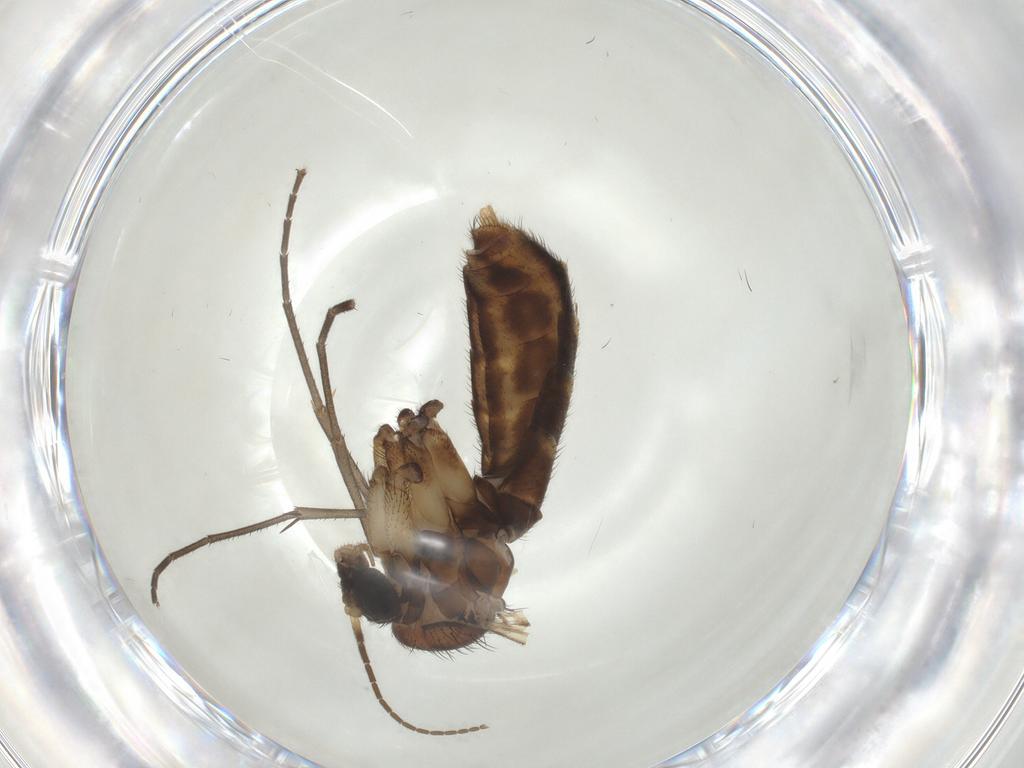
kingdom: Animalia
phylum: Arthropoda
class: Insecta
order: Diptera
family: Mycetophilidae
